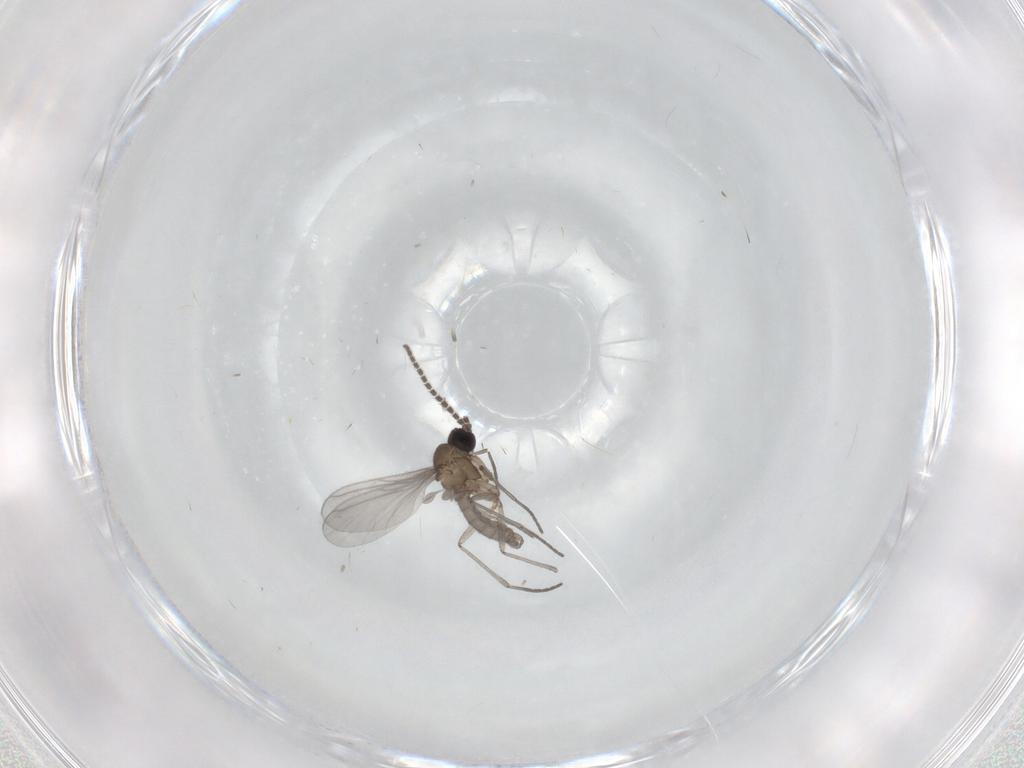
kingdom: Animalia
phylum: Arthropoda
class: Insecta
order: Diptera
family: Chironomidae
